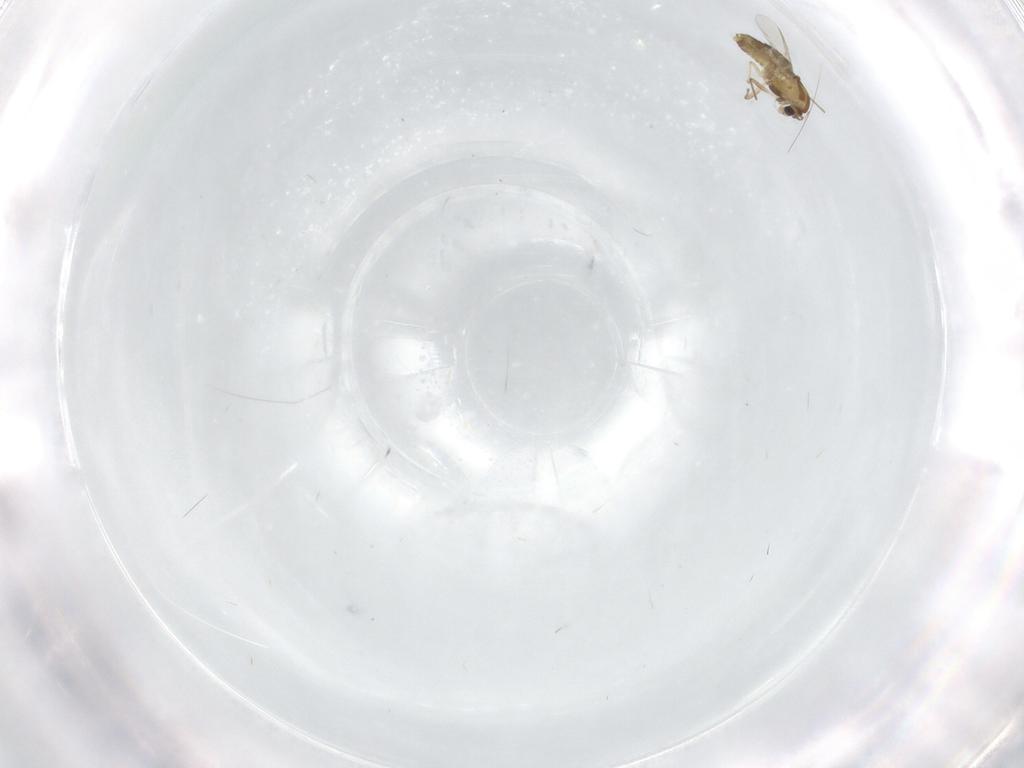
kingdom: Animalia
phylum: Arthropoda
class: Insecta
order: Diptera
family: Chironomidae
